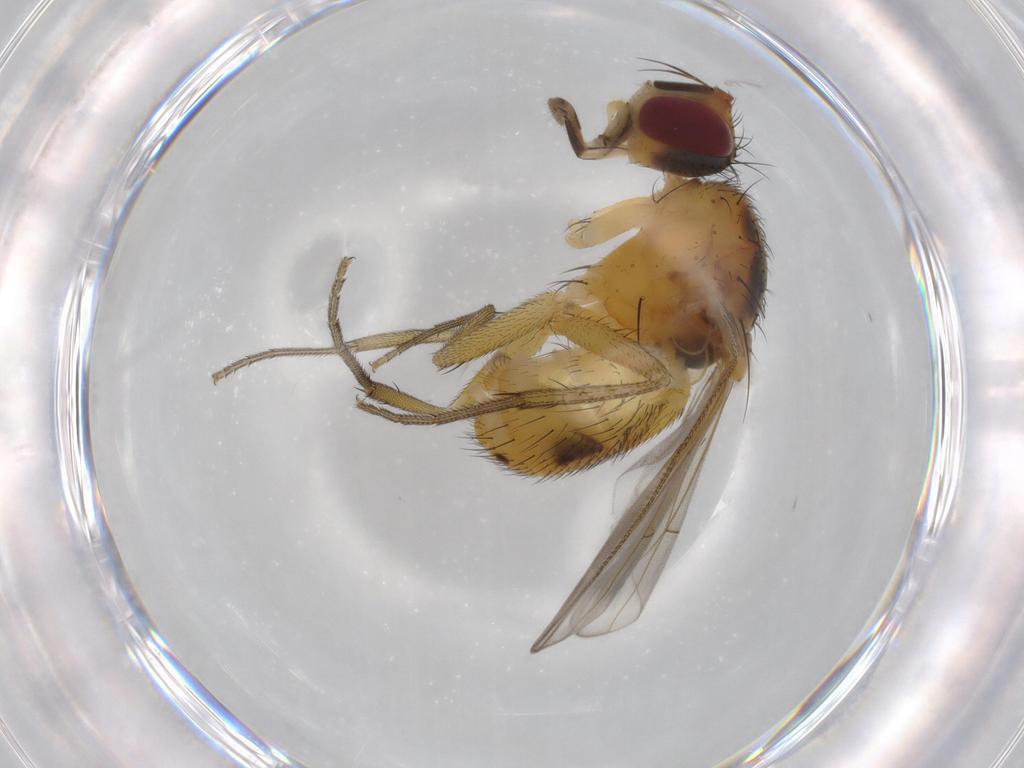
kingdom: Animalia
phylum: Arthropoda
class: Insecta
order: Diptera
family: Muscidae
